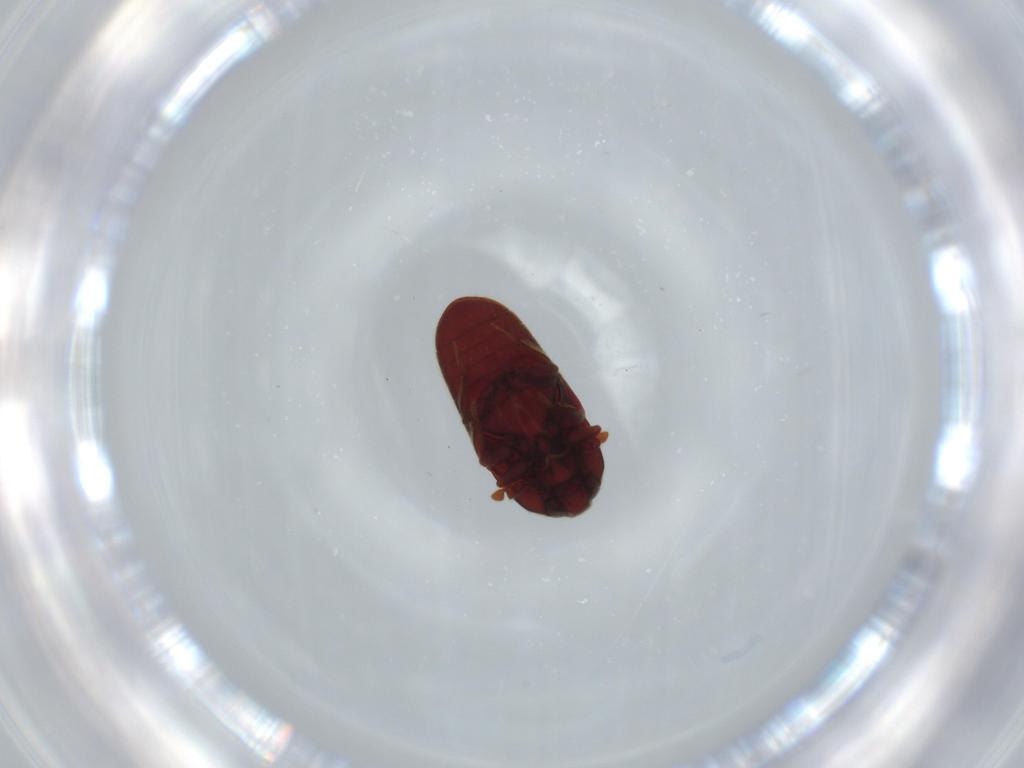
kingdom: Animalia
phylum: Arthropoda
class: Insecta
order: Coleoptera
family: Throscidae
